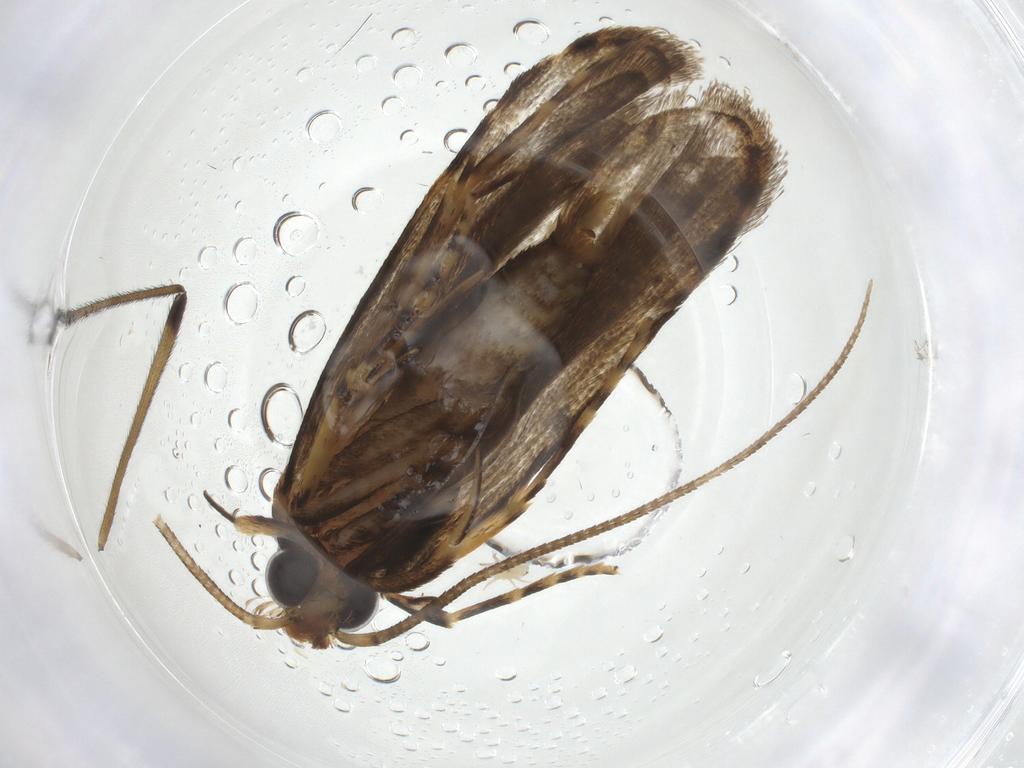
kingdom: Animalia
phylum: Arthropoda
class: Insecta
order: Lepidoptera
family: Autostichidae
